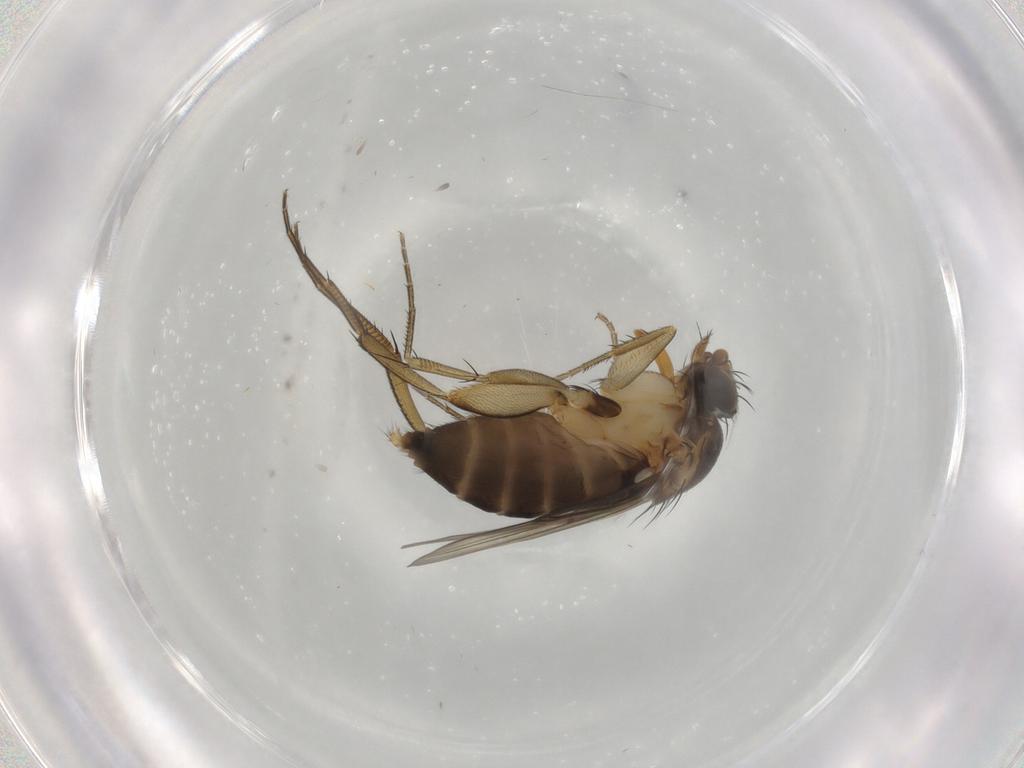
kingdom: Animalia
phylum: Arthropoda
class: Insecta
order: Diptera
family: Phoridae
